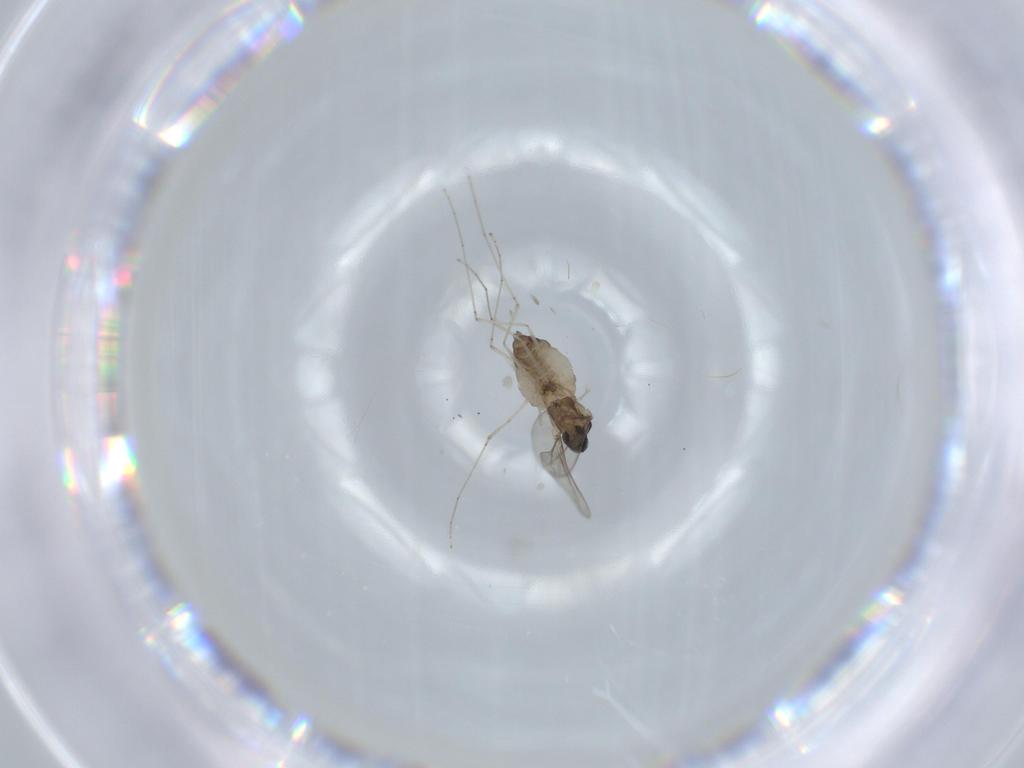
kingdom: Animalia
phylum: Arthropoda
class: Insecta
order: Diptera
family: Cecidomyiidae
